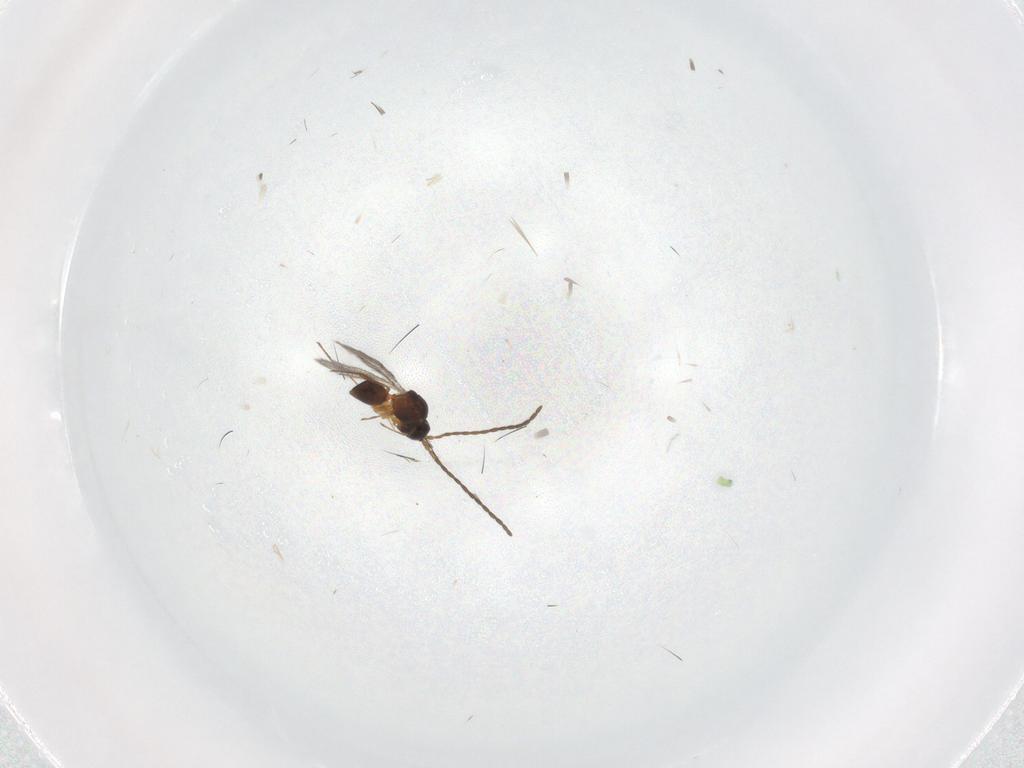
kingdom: Animalia
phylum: Arthropoda
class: Insecta
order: Hymenoptera
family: Figitidae
